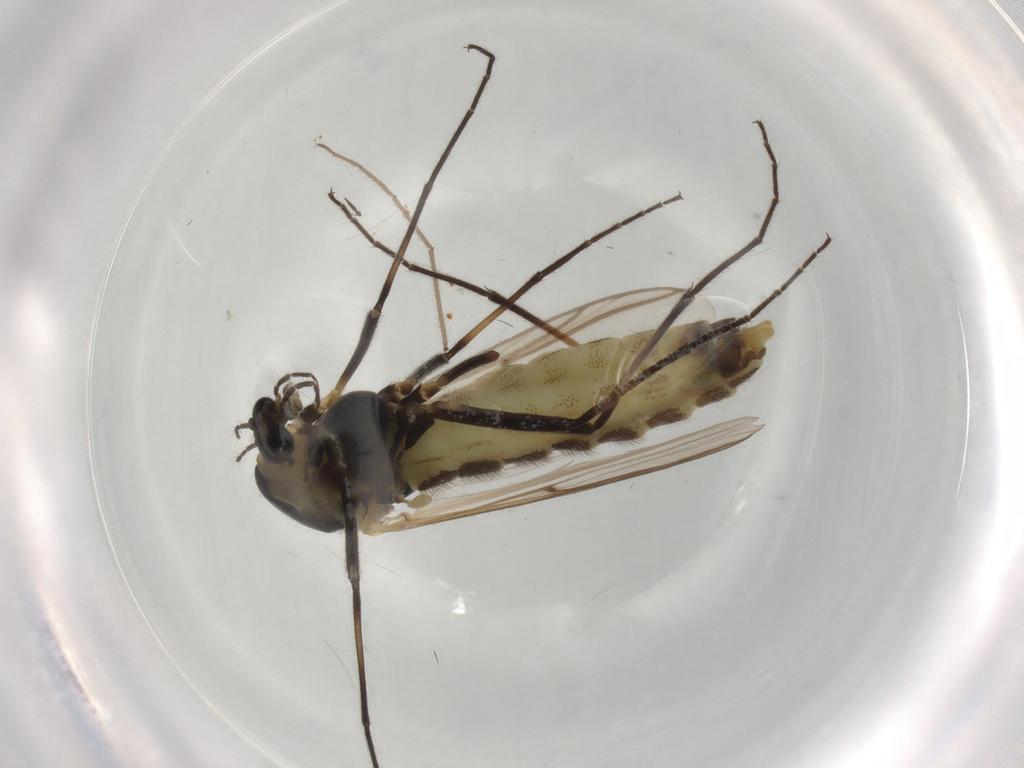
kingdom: Animalia
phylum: Arthropoda
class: Insecta
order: Diptera
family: Chironomidae
